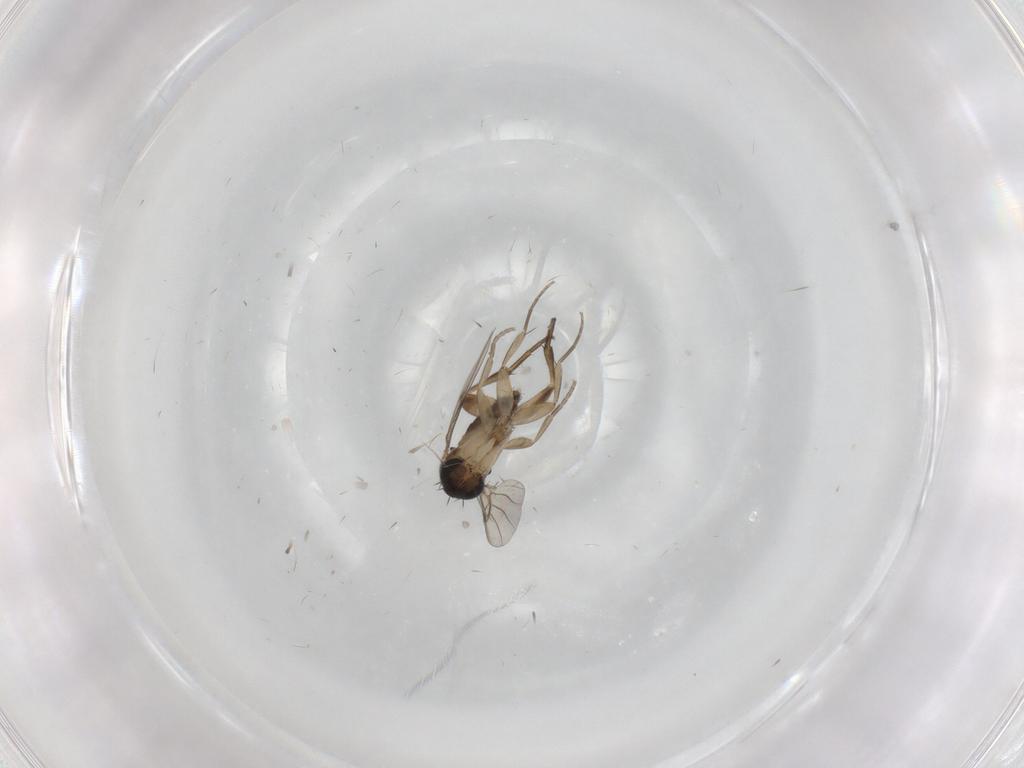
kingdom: Animalia
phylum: Arthropoda
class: Insecta
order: Diptera
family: Phoridae
